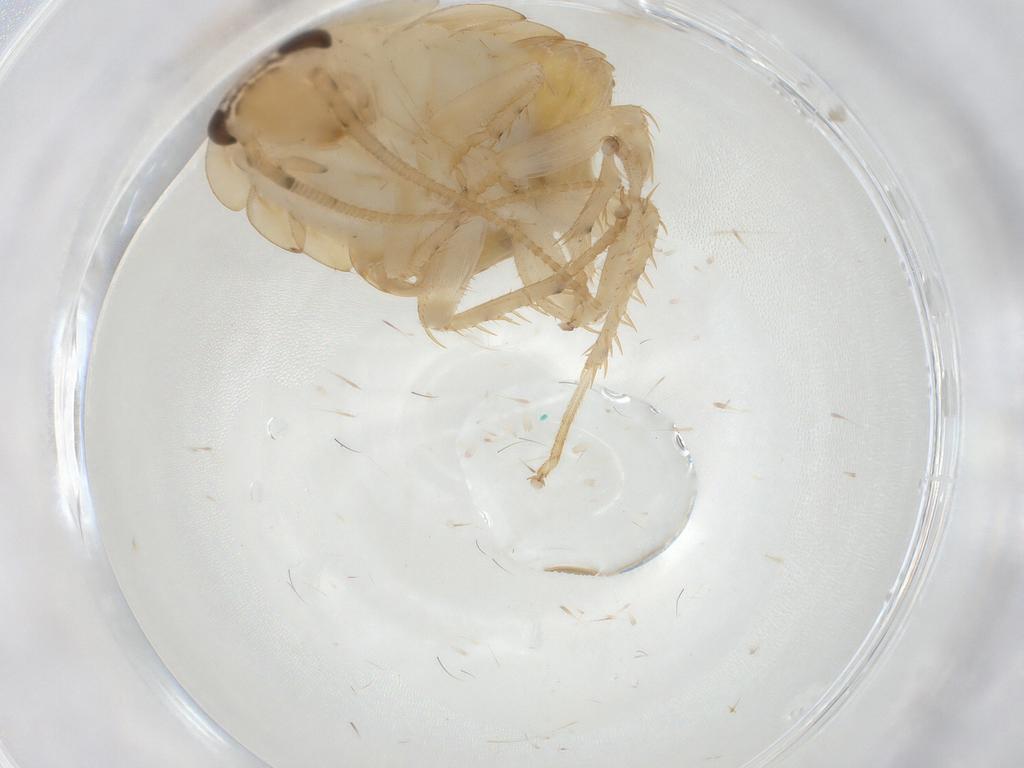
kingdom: Animalia
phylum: Arthropoda
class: Insecta
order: Blattodea
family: Ectobiidae
